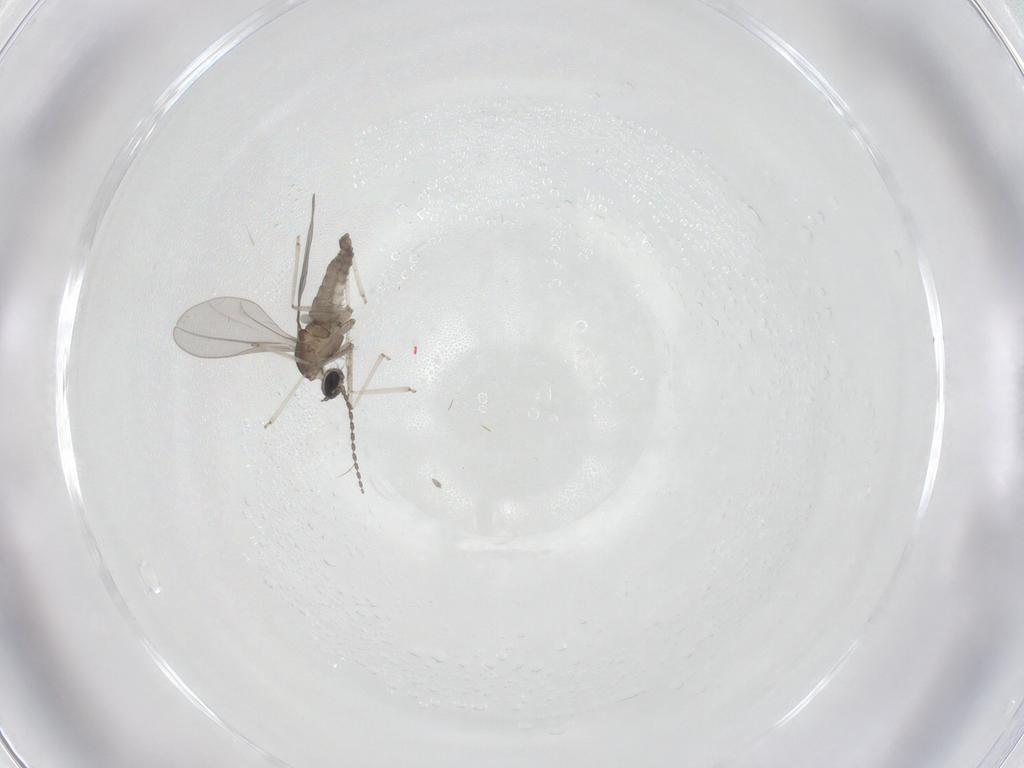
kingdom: Animalia
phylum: Arthropoda
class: Insecta
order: Diptera
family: Cecidomyiidae
